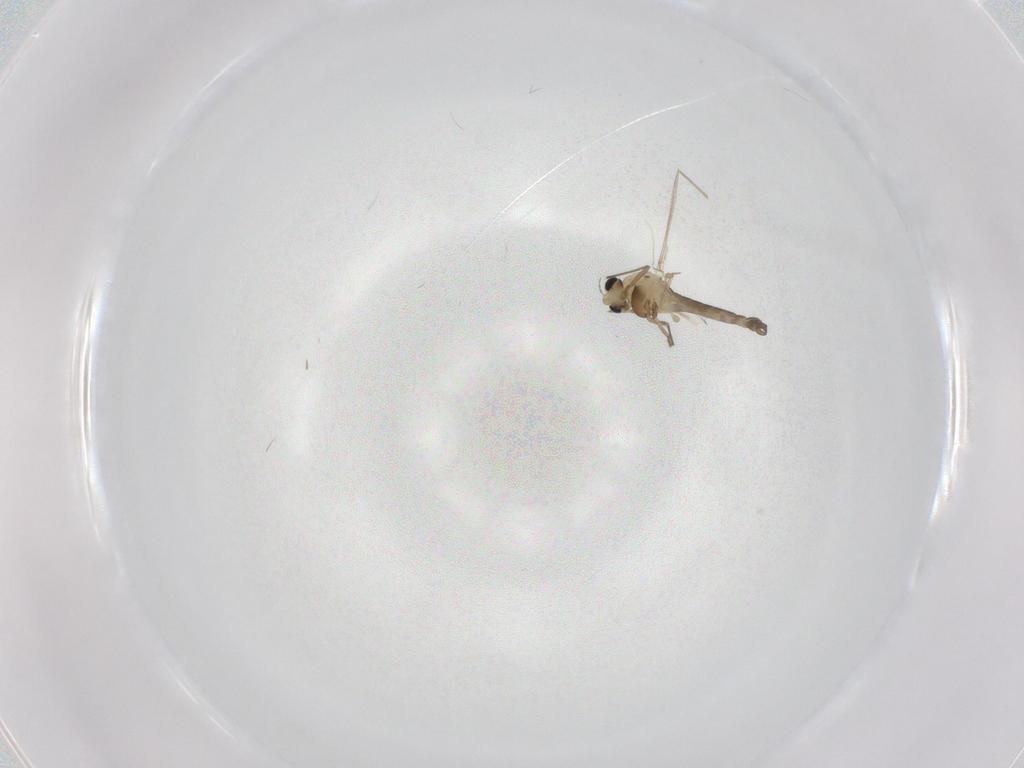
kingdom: Animalia
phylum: Arthropoda
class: Insecta
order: Diptera
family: Chironomidae
